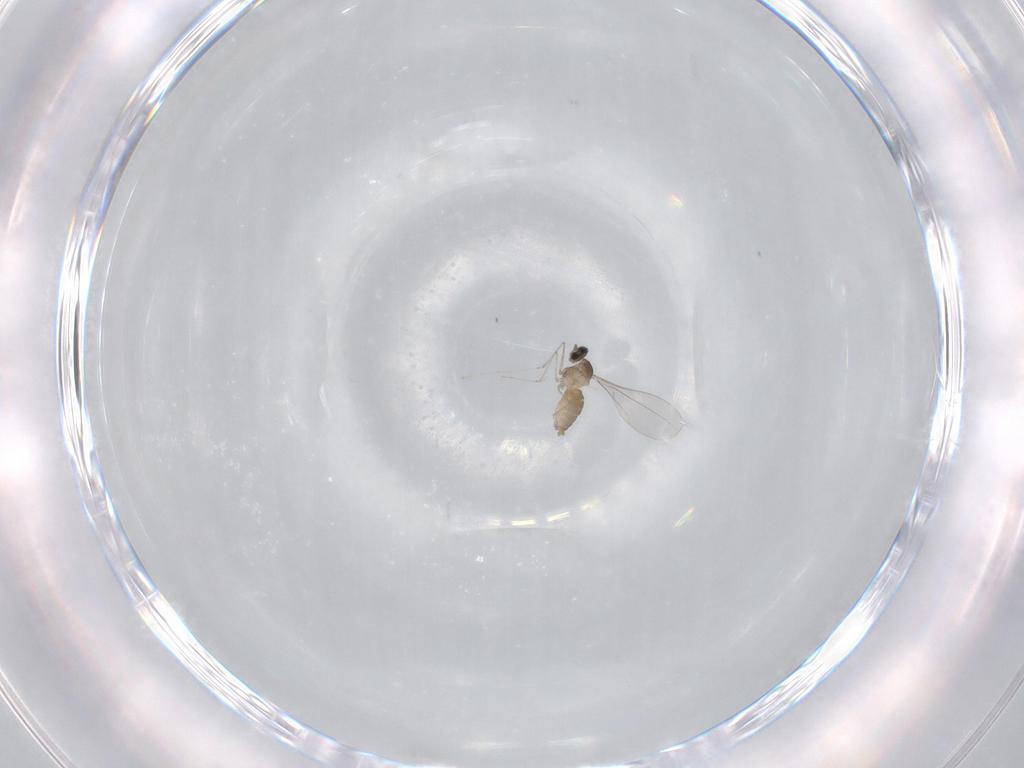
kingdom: Animalia
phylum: Arthropoda
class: Insecta
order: Diptera
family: Cecidomyiidae
